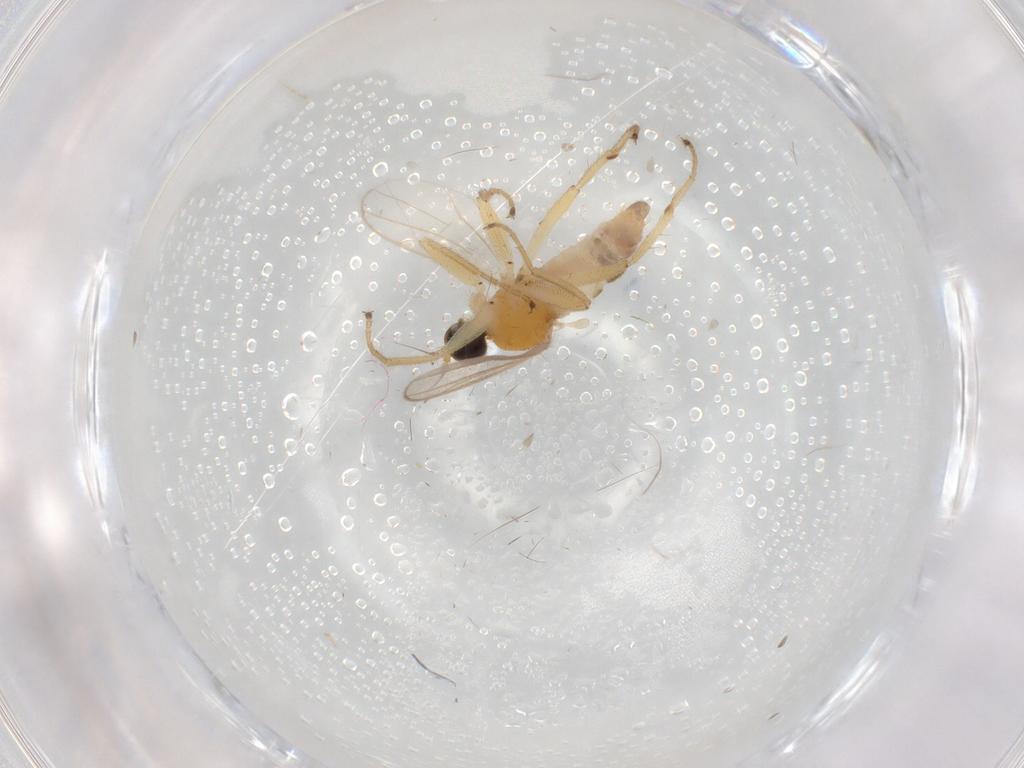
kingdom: Animalia
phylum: Arthropoda
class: Insecta
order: Diptera
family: Hybotidae
